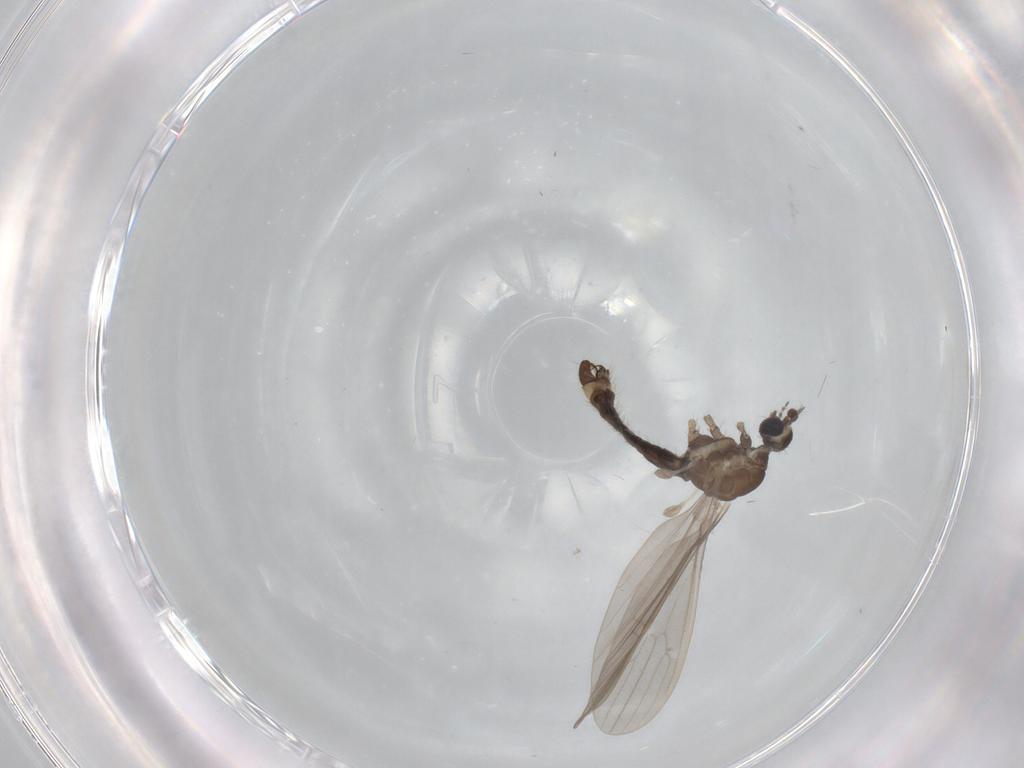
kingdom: Animalia
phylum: Arthropoda
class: Insecta
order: Diptera
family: Limoniidae
